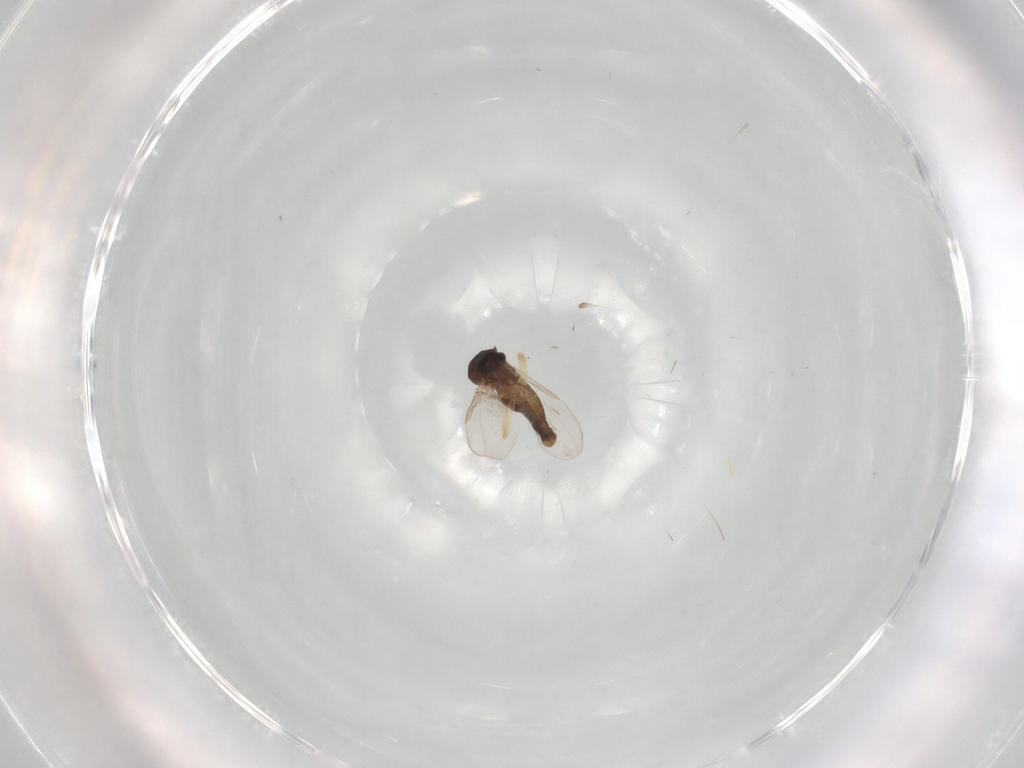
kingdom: Animalia
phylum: Arthropoda
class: Insecta
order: Diptera
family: Ceratopogonidae
